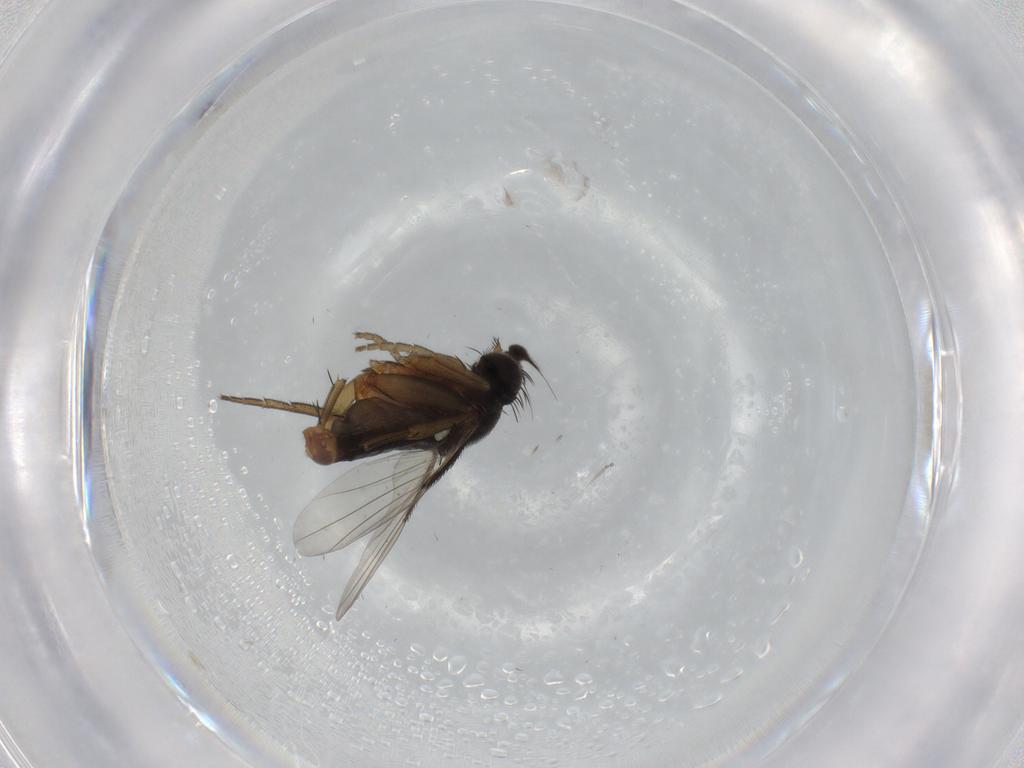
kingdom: Animalia
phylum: Arthropoda
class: Insecta
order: Diptera
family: Phoridae
